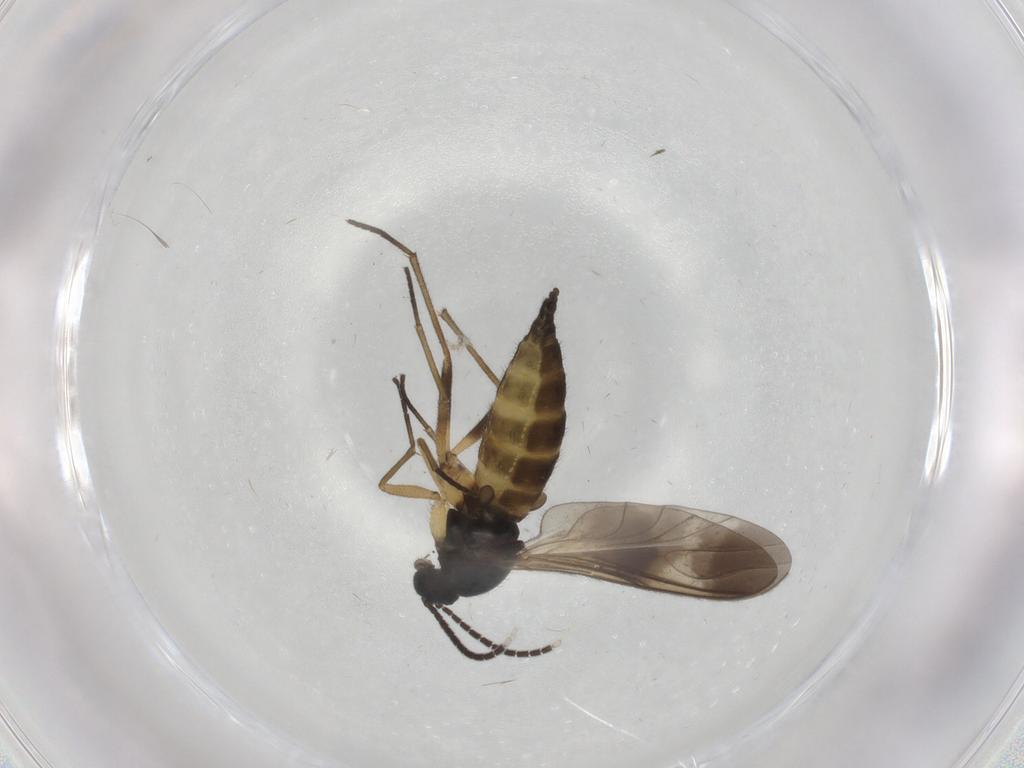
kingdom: Animalia
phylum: Arthropoda
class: Insecta
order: Diptera
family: Sciaridae
